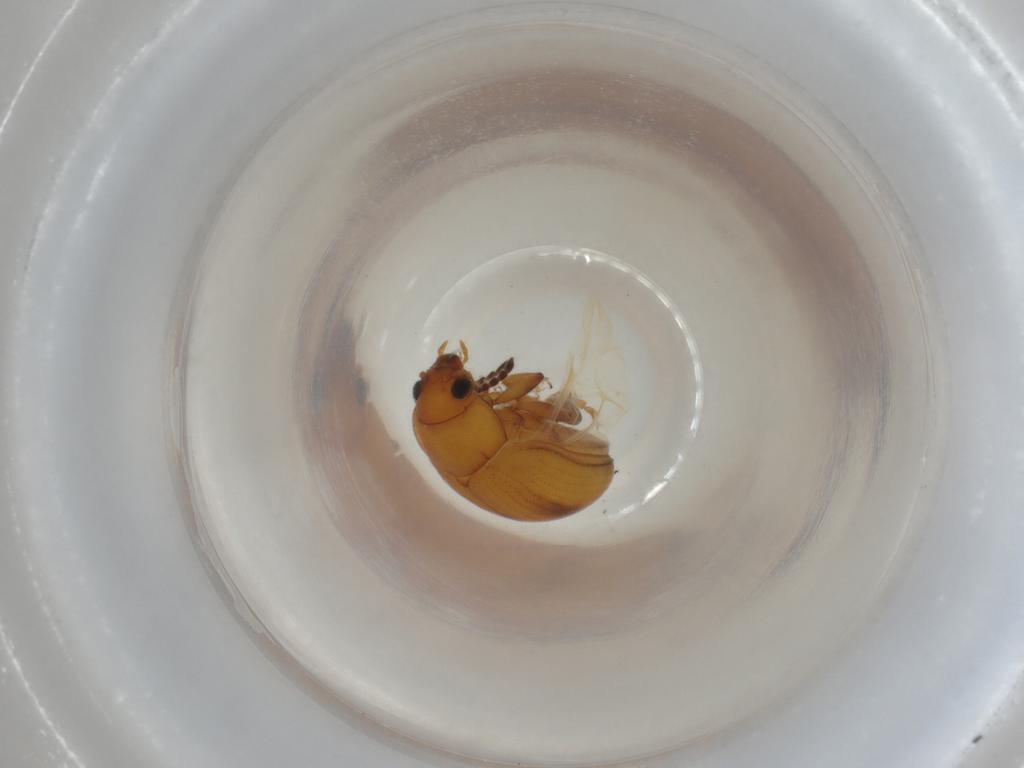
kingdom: Animalia
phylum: Arthropoda
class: Insecta
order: Coleoptera
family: Chrysomelidae
